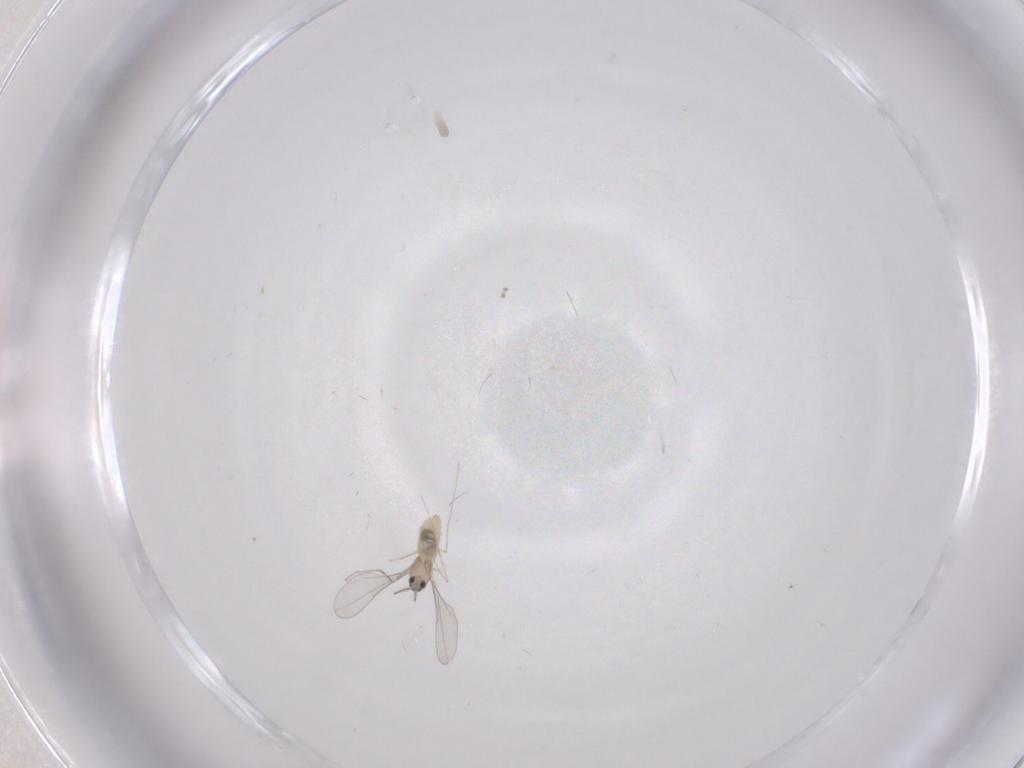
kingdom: Animalia
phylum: Arthropoda
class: Insecta
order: Diptera
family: Cecidomyiidae
